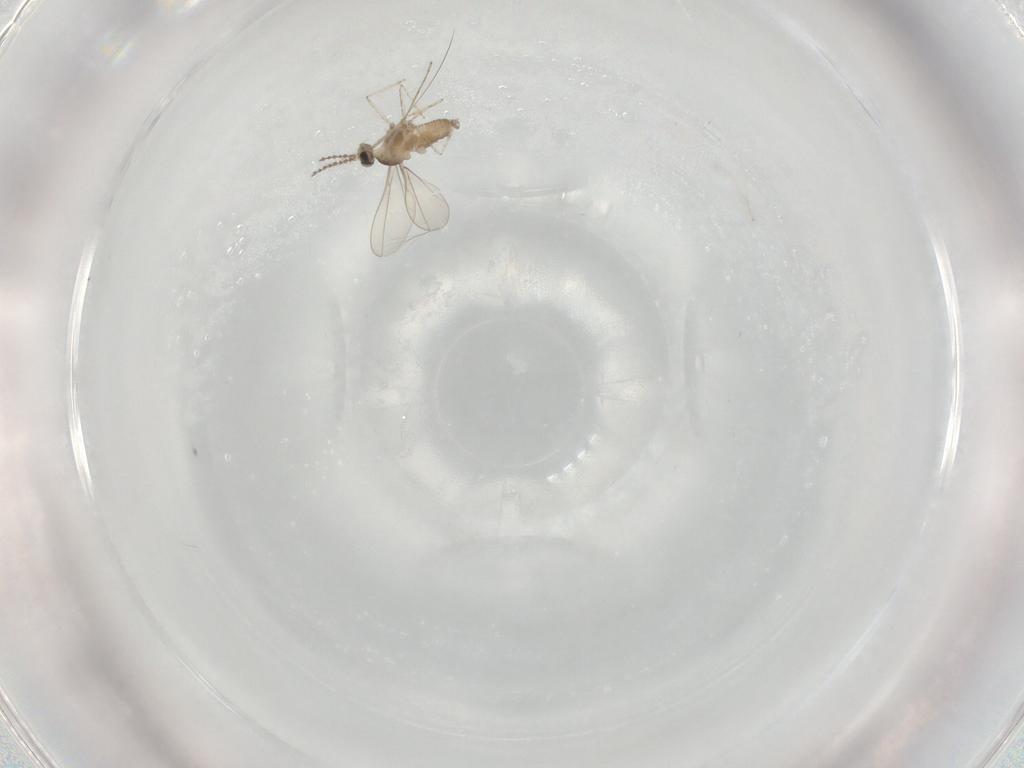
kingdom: Animalia
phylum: Arthropoda
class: Insecta
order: Diptera
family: Cecidomyiidae
